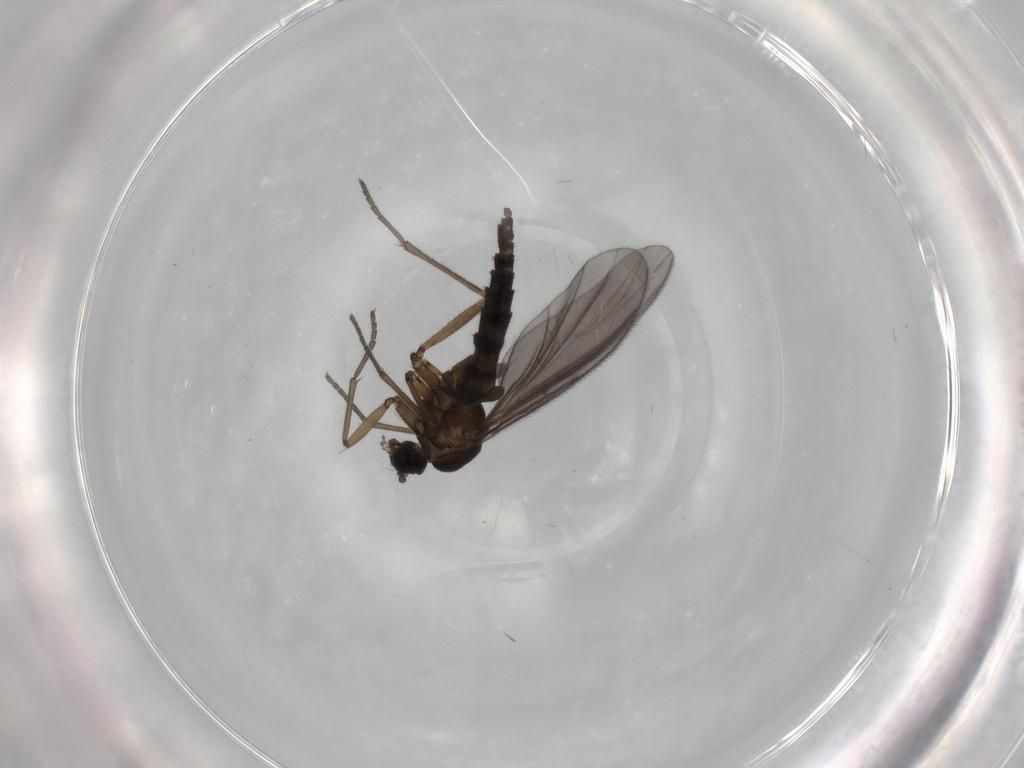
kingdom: Animalia
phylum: Arthropoda
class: Insecta
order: Diptera
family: Sciaridae
